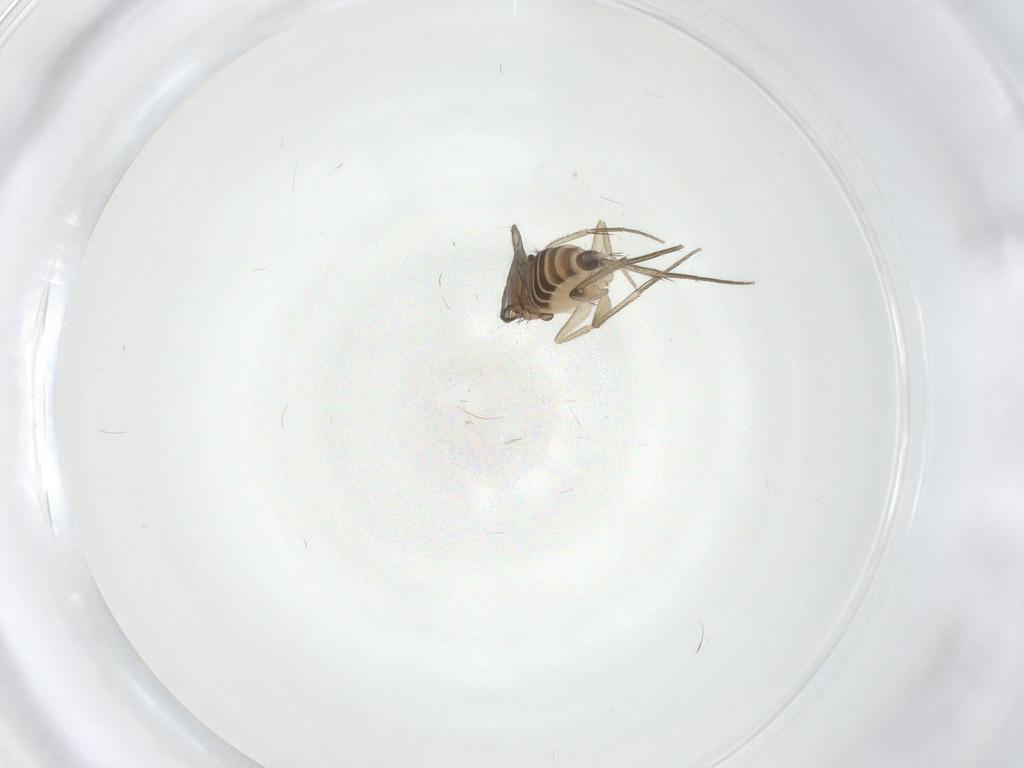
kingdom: Animalia
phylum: Arthropoda
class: Insecta
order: Diptera
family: Phoridae
